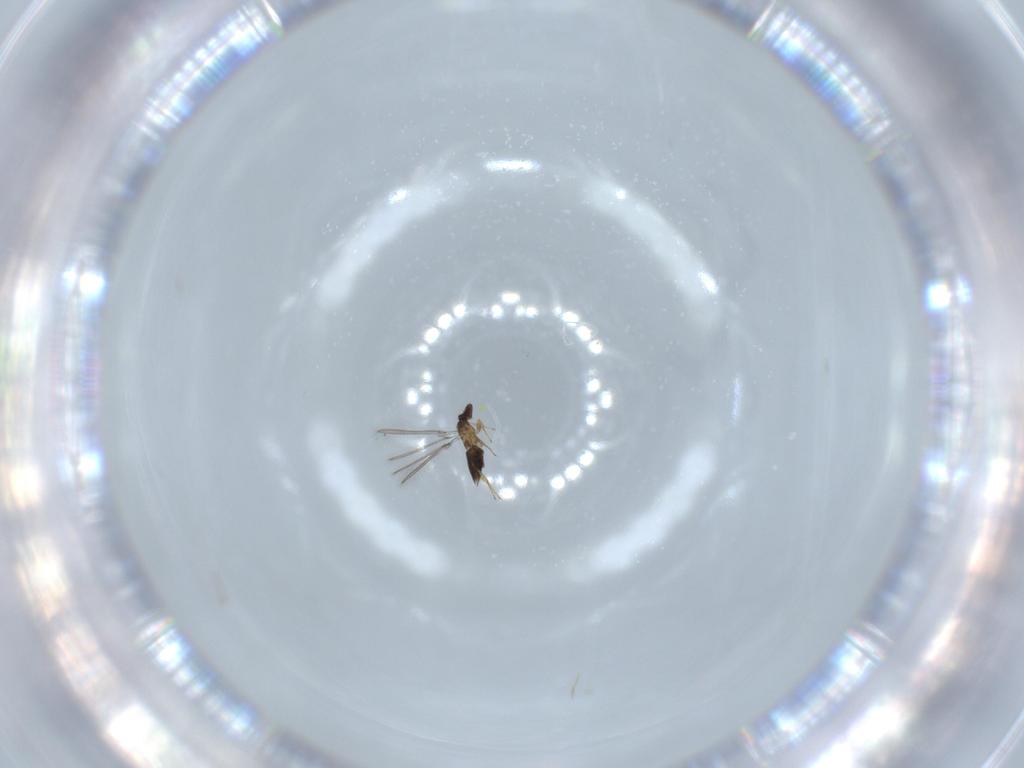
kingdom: Animalia
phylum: Arthropoda
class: Insecta
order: Hymenoptera
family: Mymaridae
